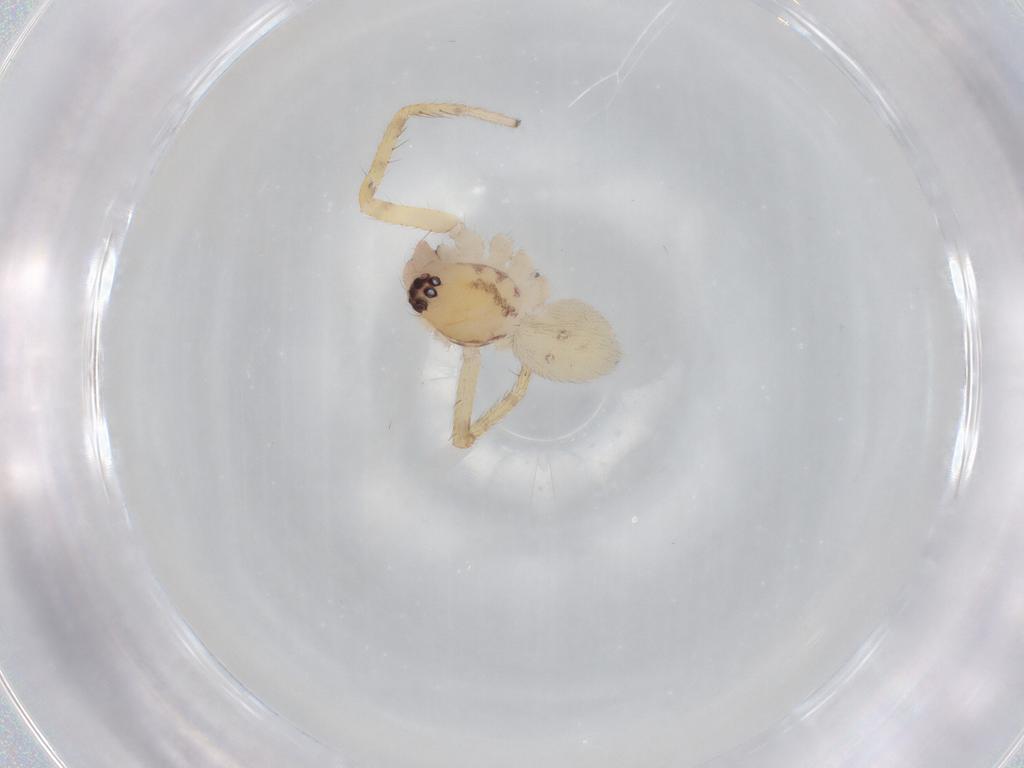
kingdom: Animalia
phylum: Arthropoda
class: Arachnida
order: Araneae
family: Corinnidae
